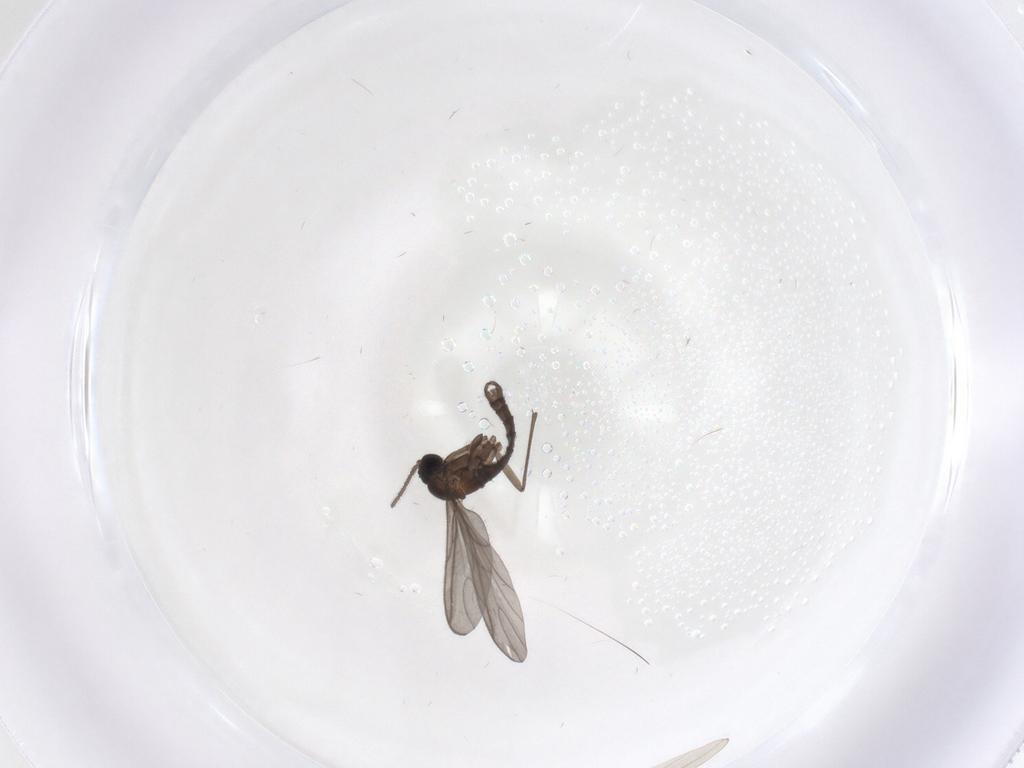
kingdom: Animalia
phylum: Arthropoda
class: Insecta
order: Diptera
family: Sciaridae
